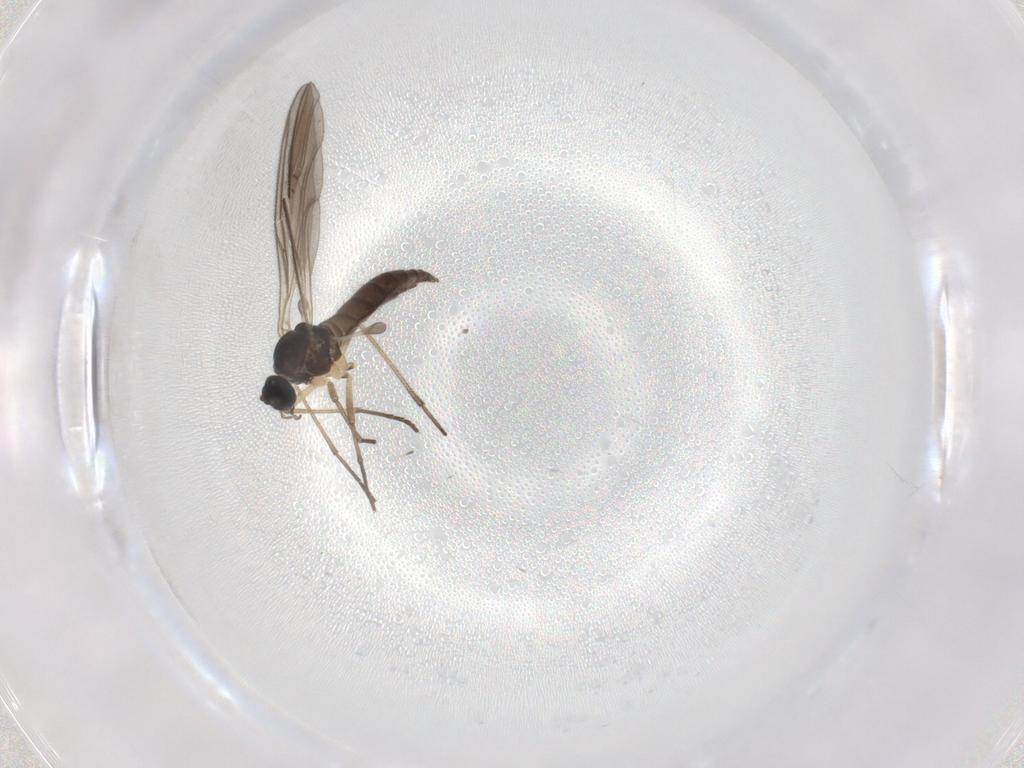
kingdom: Animalia
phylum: Arthropoda
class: Insecta
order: Diptera
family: Sciaridae
